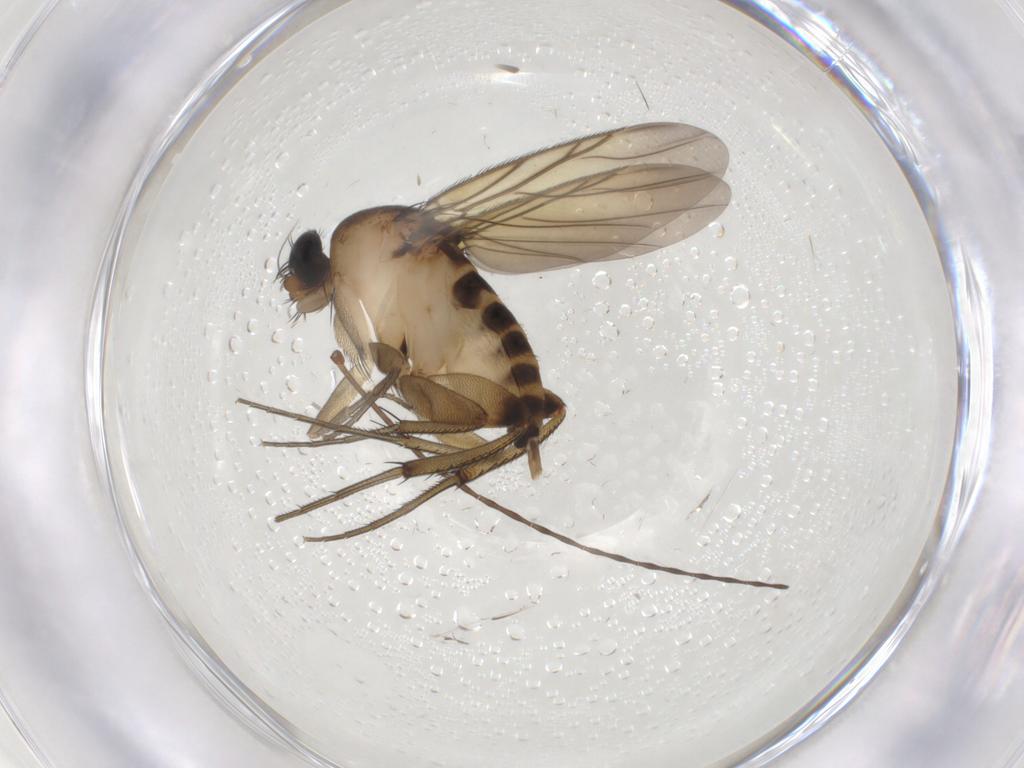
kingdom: Animalia
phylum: Arthropoda
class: Insecta
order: Diptera
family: Phoridae
